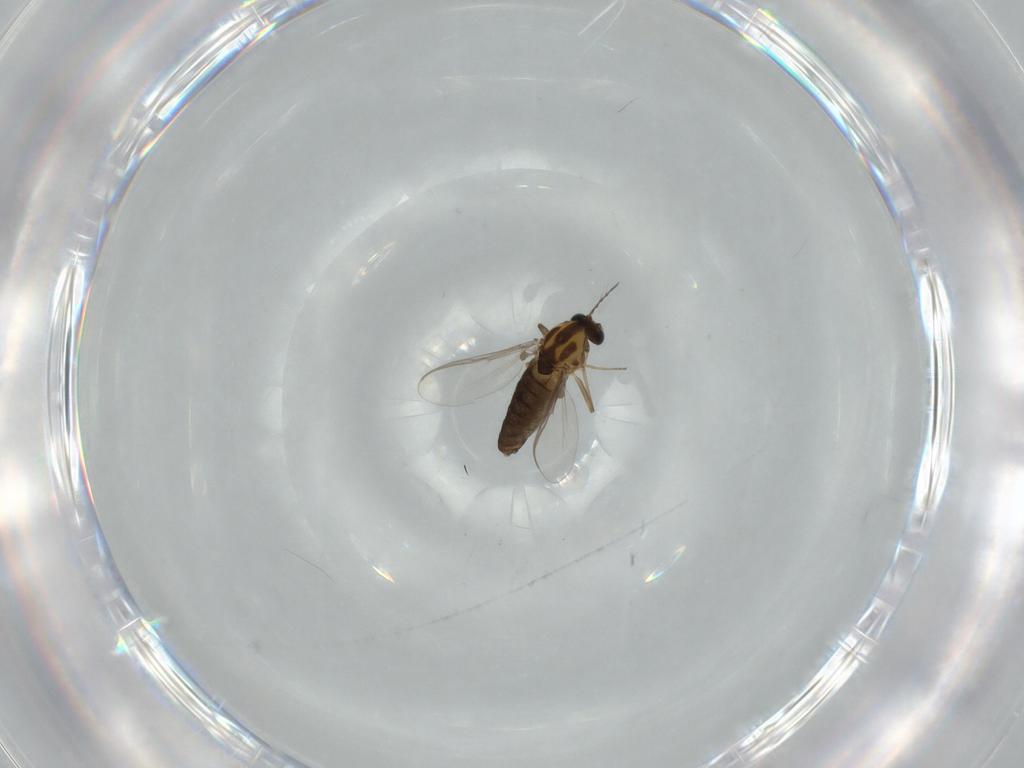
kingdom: Animalia
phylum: Arthropoda
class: Insecta
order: Diptera
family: Chironomidae
